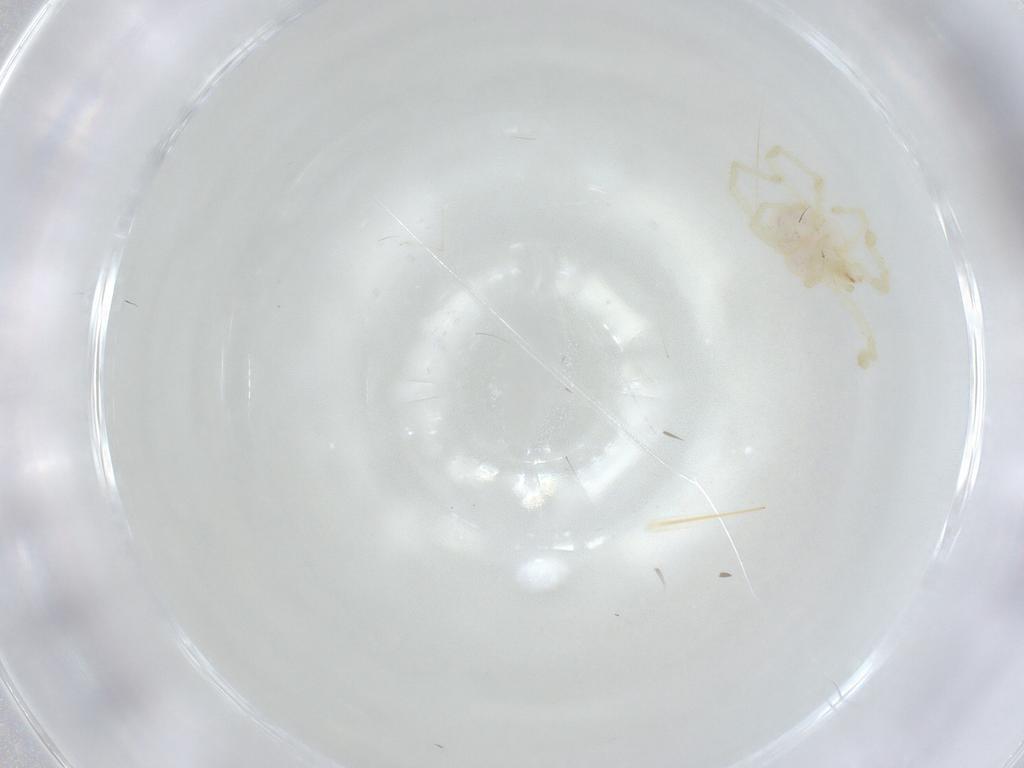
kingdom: Animalia
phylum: Arthropoda
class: Arachnida
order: Trombidiformes
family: Erythraeidae
